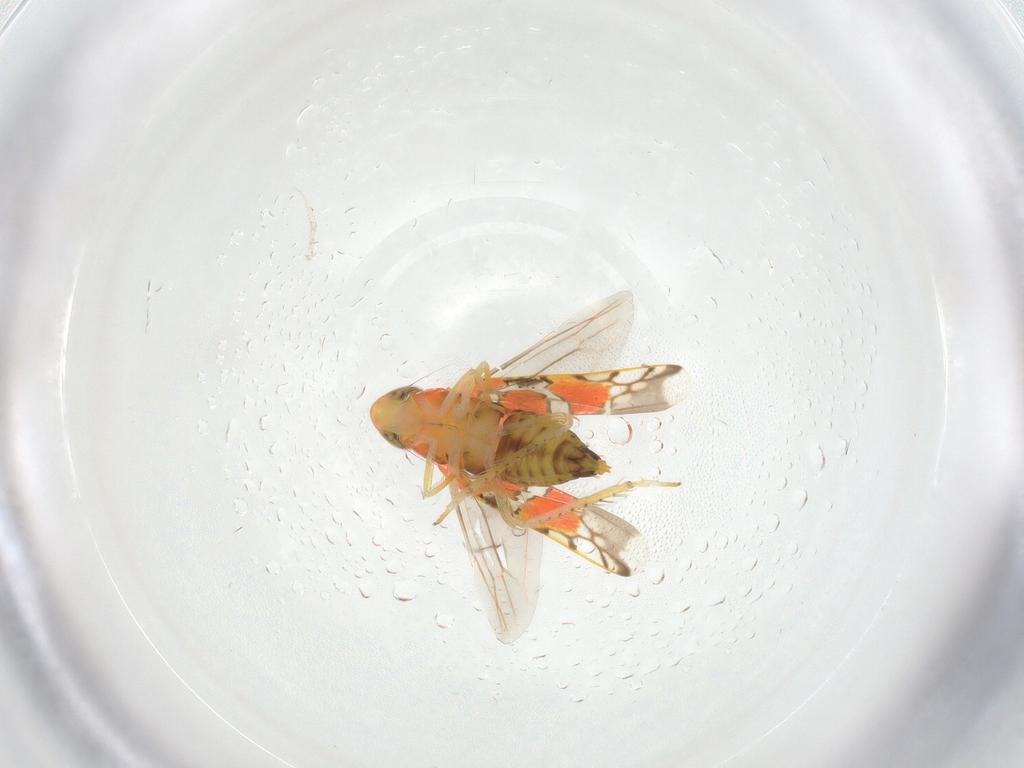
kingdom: Animalia
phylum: Arthropoda
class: Insecta
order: Hemiptera
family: Cicadellidae
